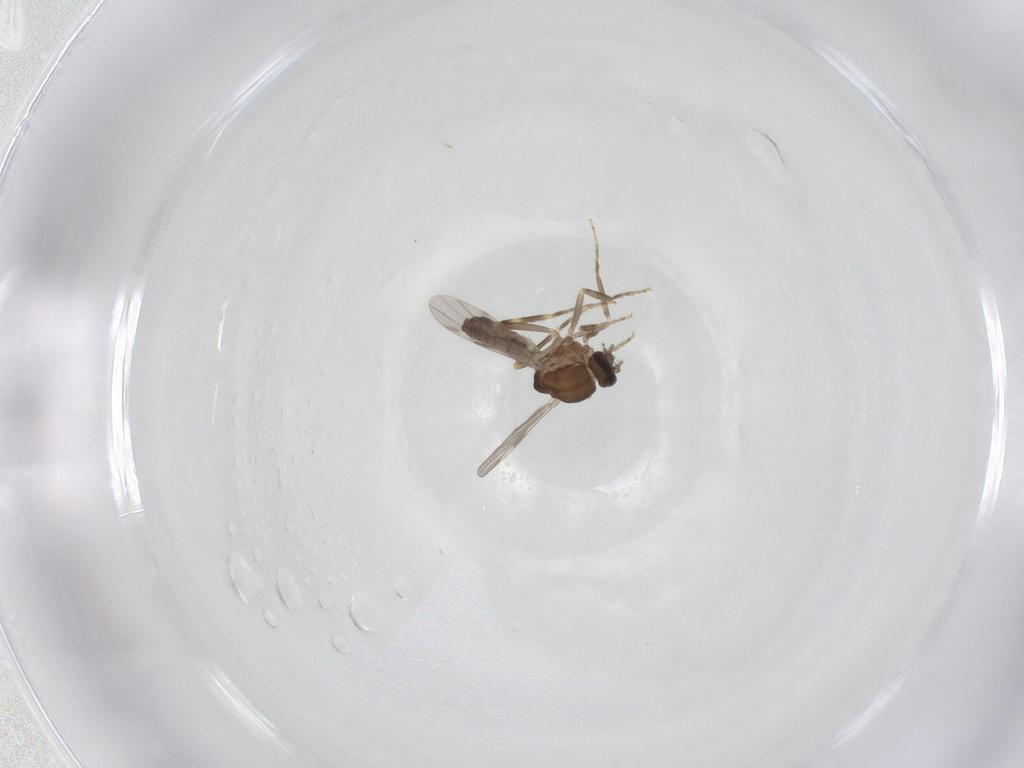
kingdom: Animalia
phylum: Arthropoda
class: Insecta
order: Diptera
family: Ceratopogonidae
